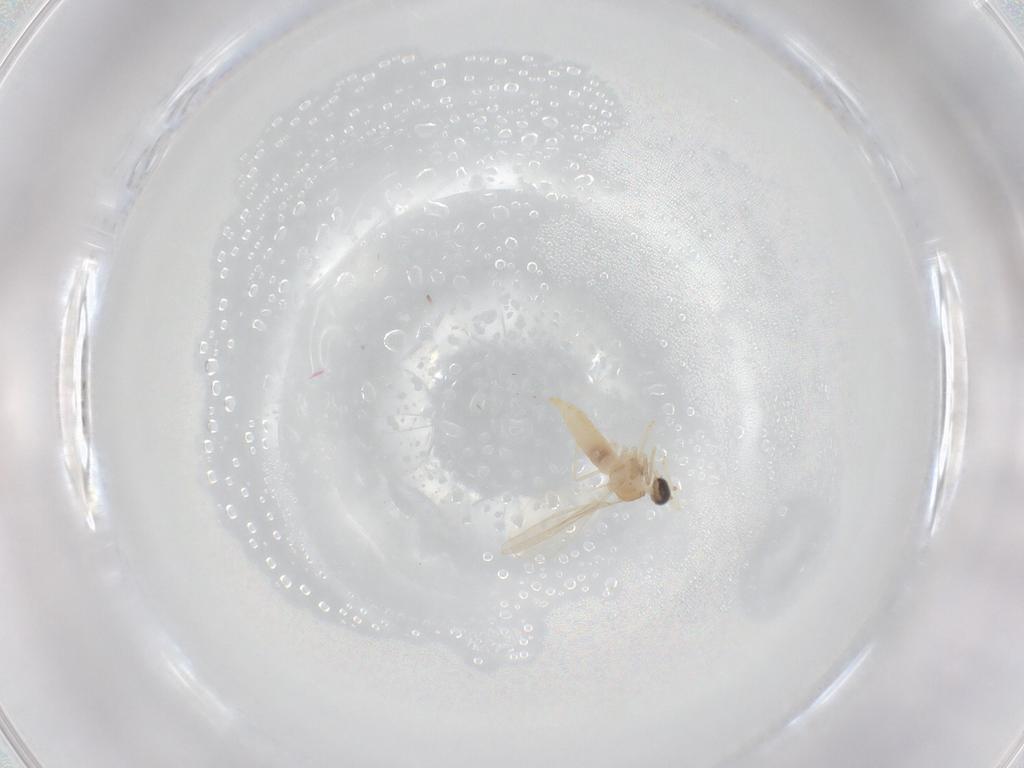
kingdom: Animalia
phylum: Arthropoda
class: Insecta
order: Diptera
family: Cecidomyiidae
